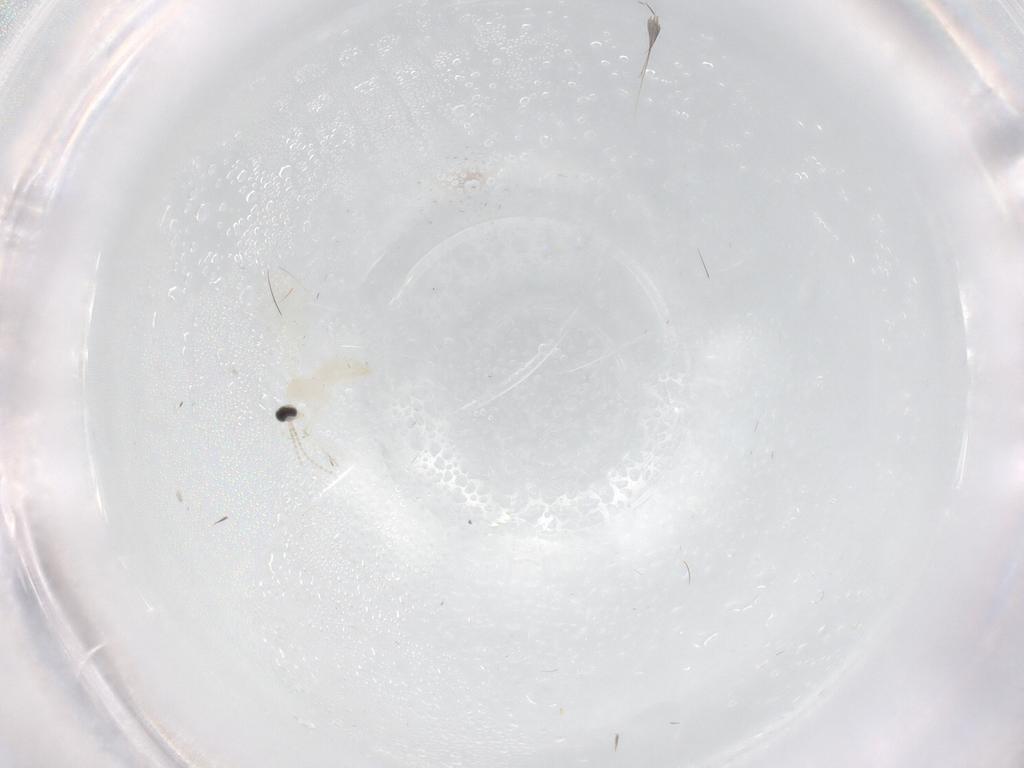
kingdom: Animalia
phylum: Arthropoda
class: Insecta
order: Diptera
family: Cecidomyiidae
